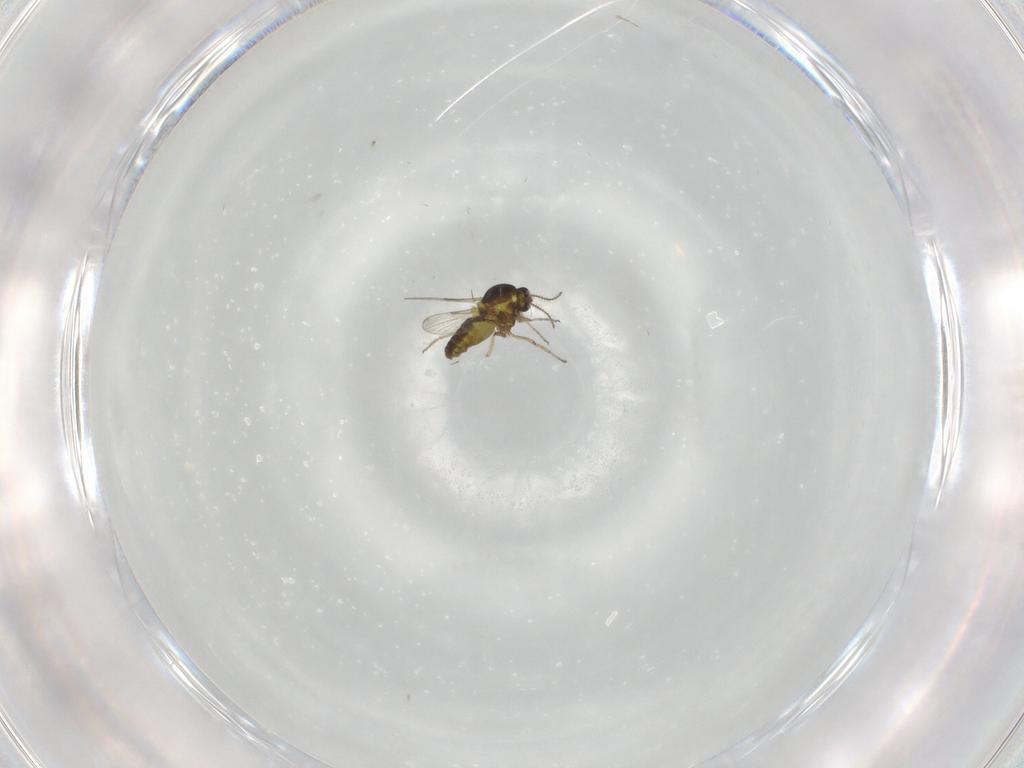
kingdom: Animalia
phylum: Arthropoda
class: Insecta
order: Diptera
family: Ceratopogonidae
